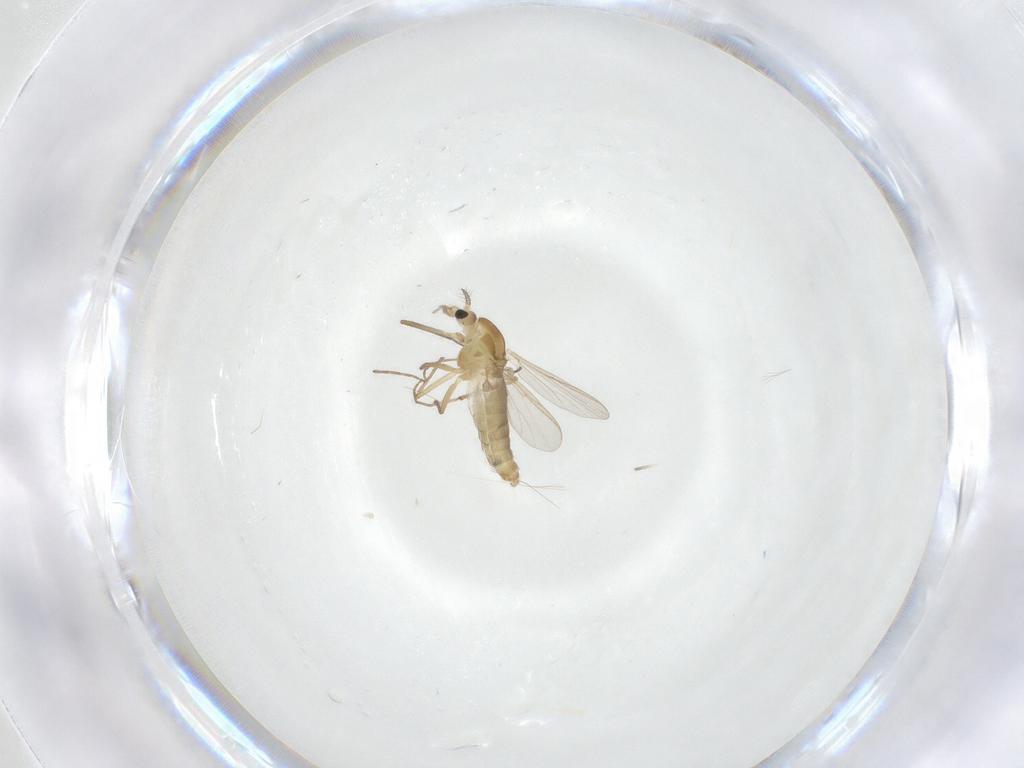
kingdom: Animalia
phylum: Arthropoda
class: Insecta
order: Diptera
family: Chironomidae
